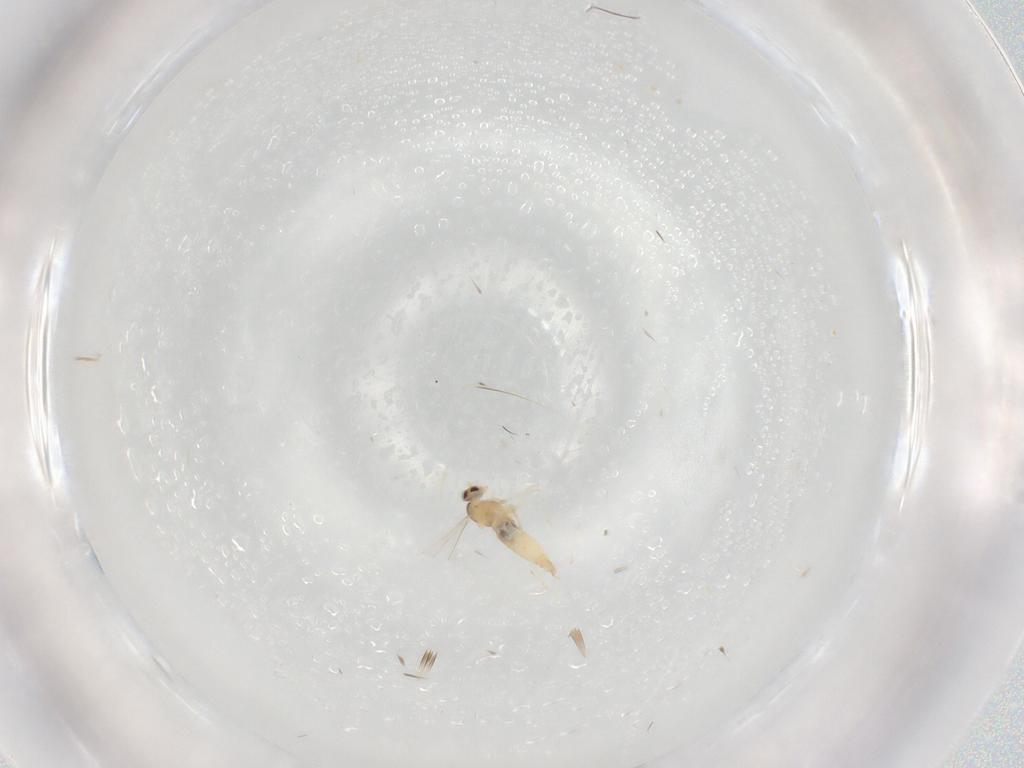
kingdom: Animalia
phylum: Arthropoda
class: Insecta
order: Diptera
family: Cecidomyiidae
